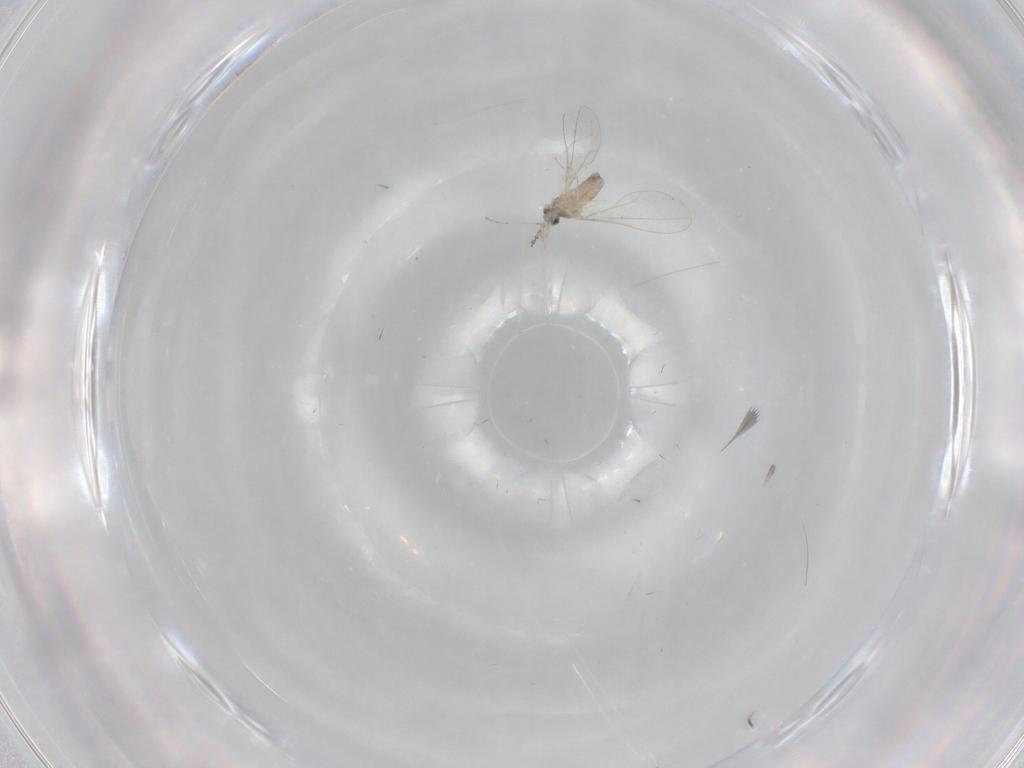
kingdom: Animalia
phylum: Arthropoda
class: Insecta
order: Diptera
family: Cecidomyiidae
